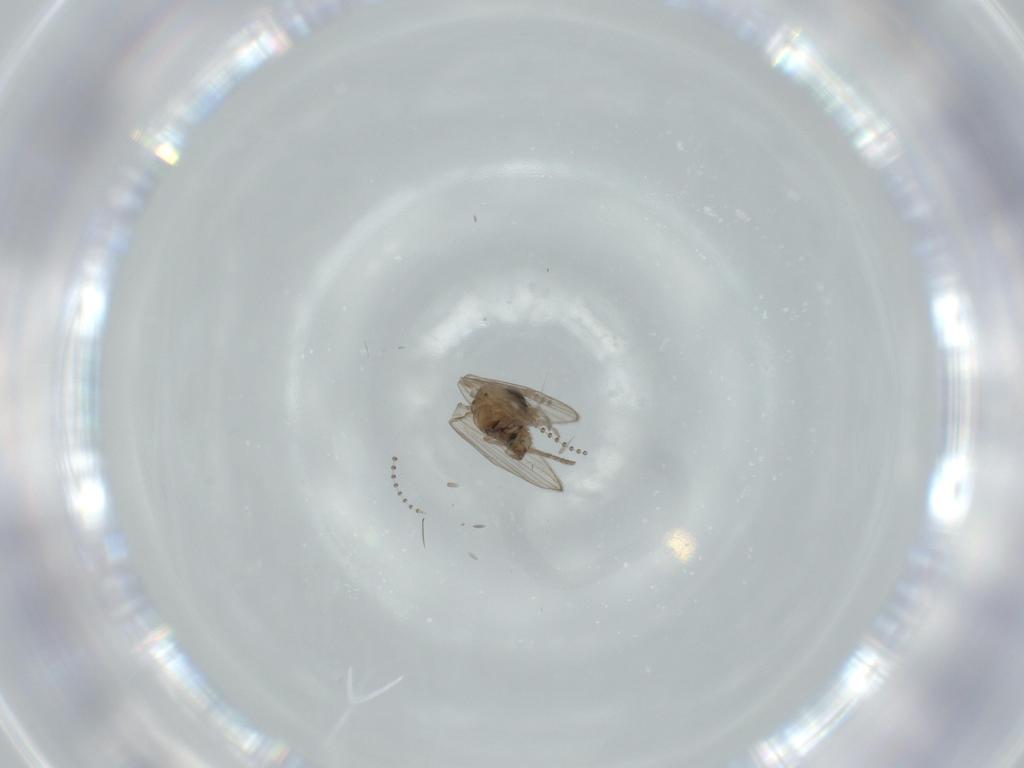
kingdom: Animalia
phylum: Arthropoda
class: Insecta
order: Diptera
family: Psychodidae
